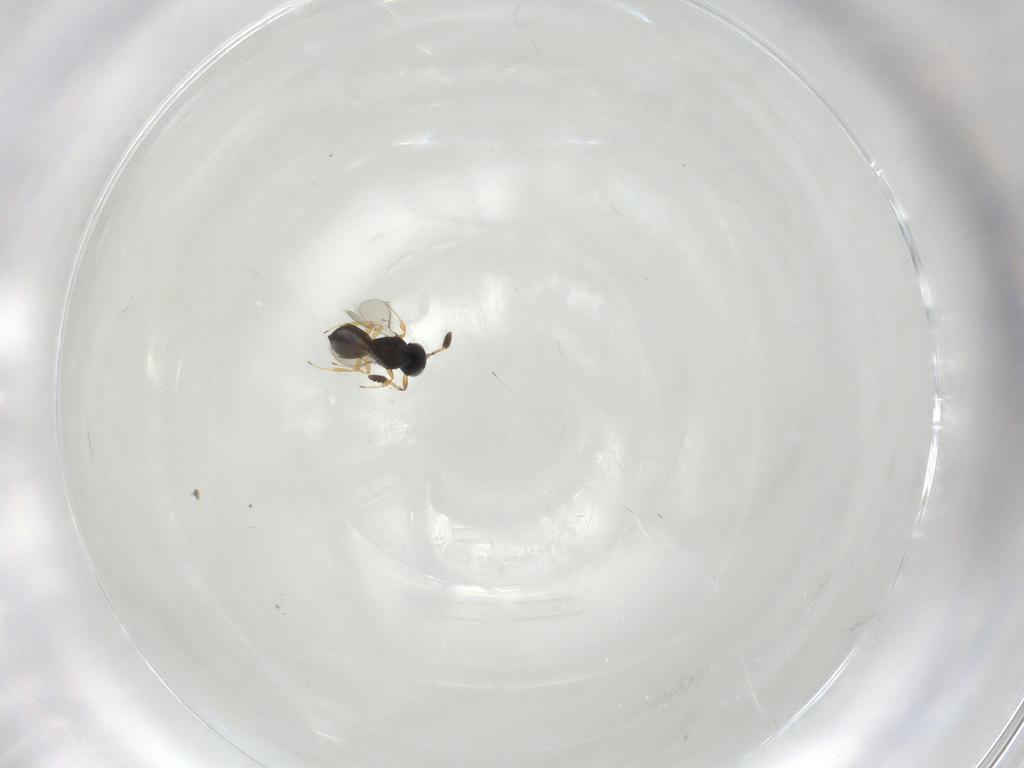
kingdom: Animalia
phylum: Arthropoda
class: Insecta
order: Hymenoptera
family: Scelionidae
